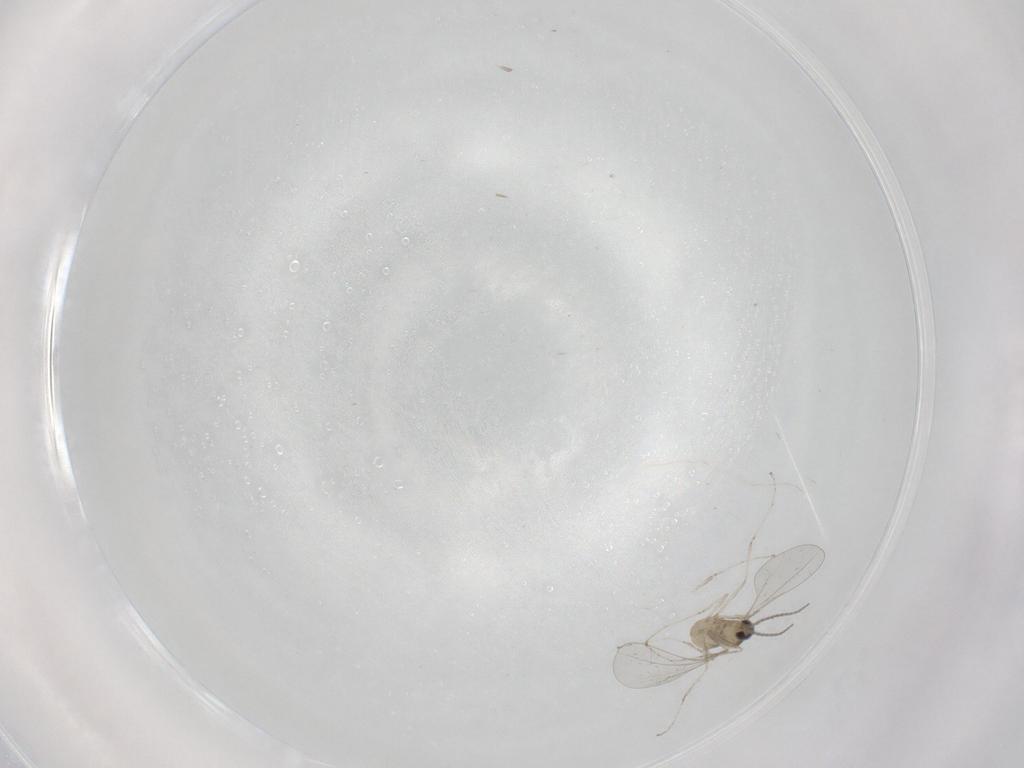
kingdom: Animalia
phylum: Arthropoda
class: Insecta
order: Diptera
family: Cecidomyiidae
